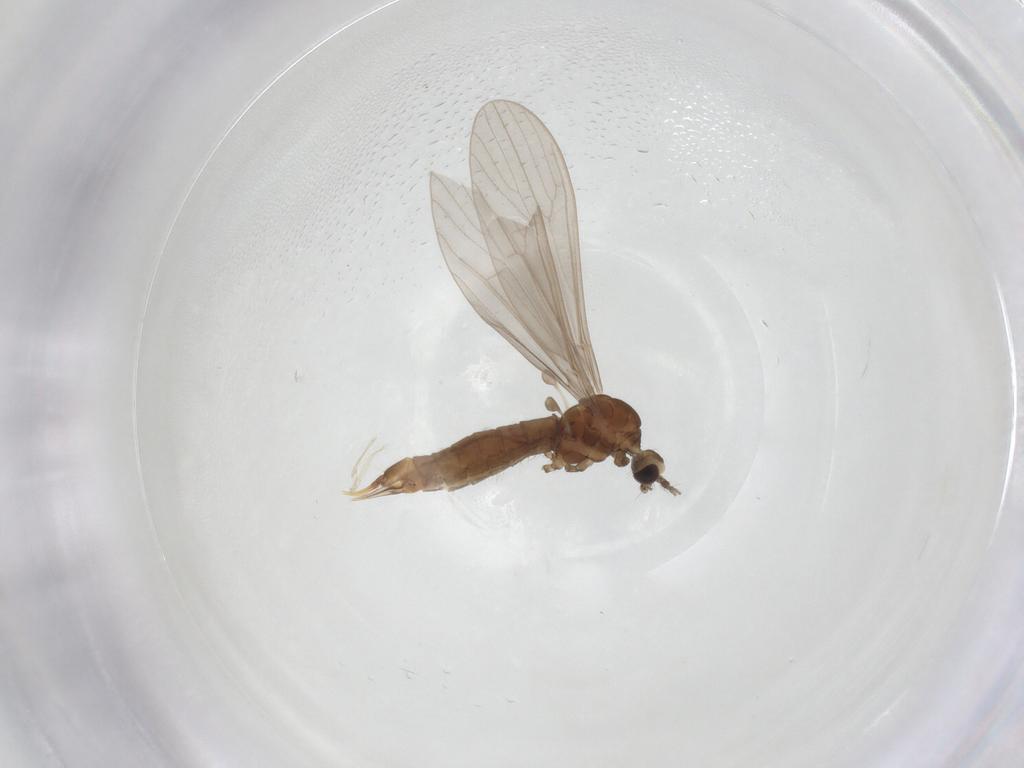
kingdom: Animalia
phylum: Arthropoda
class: Insecta
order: Diptera
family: Limoniidae
